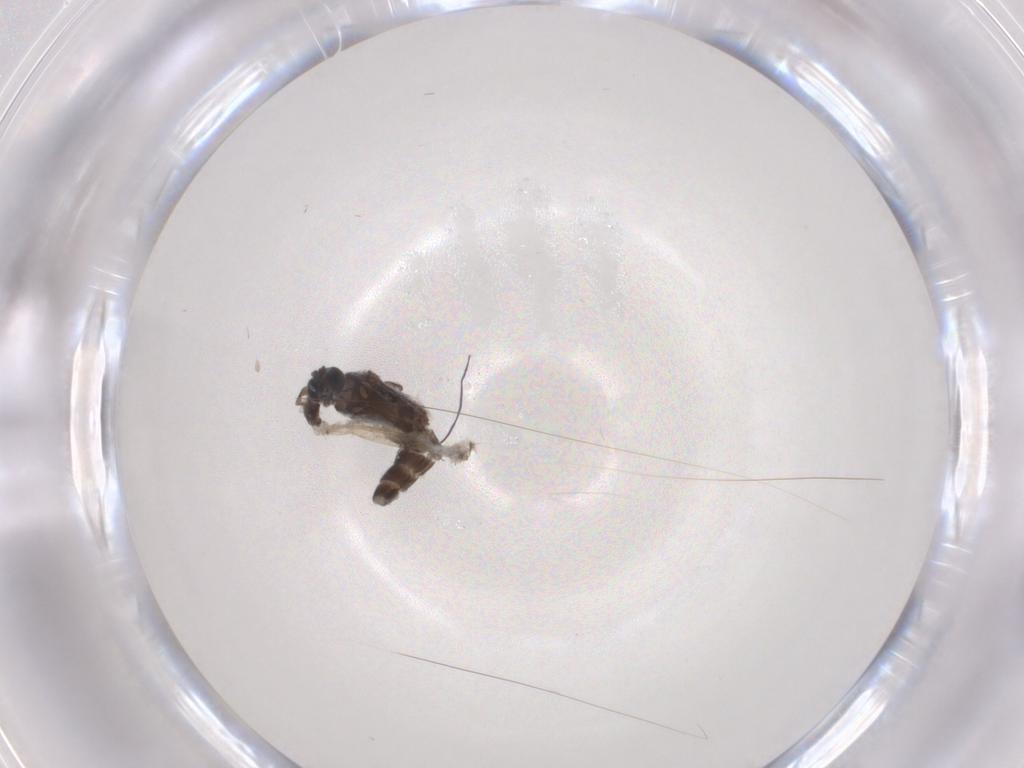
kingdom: Animalia
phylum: Arthropoda
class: Insecta
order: Diptera
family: Sciaridae
